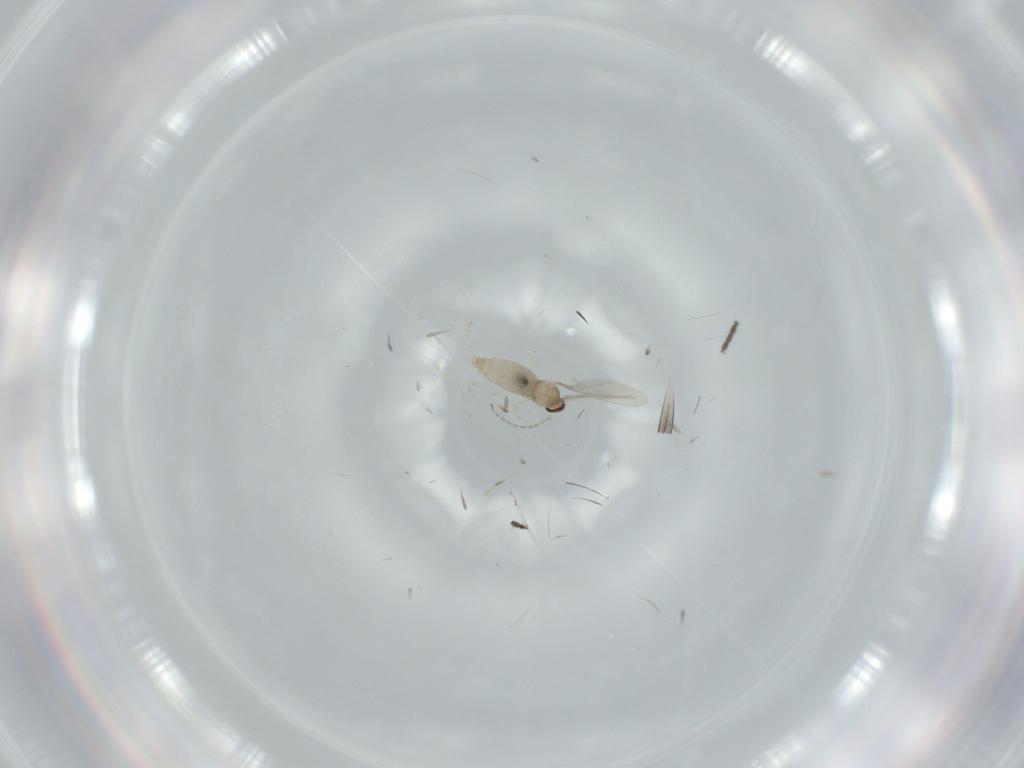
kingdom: Animalia
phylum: Arthropoda
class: Insecta
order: Diptera
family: Cecidomyiidae
